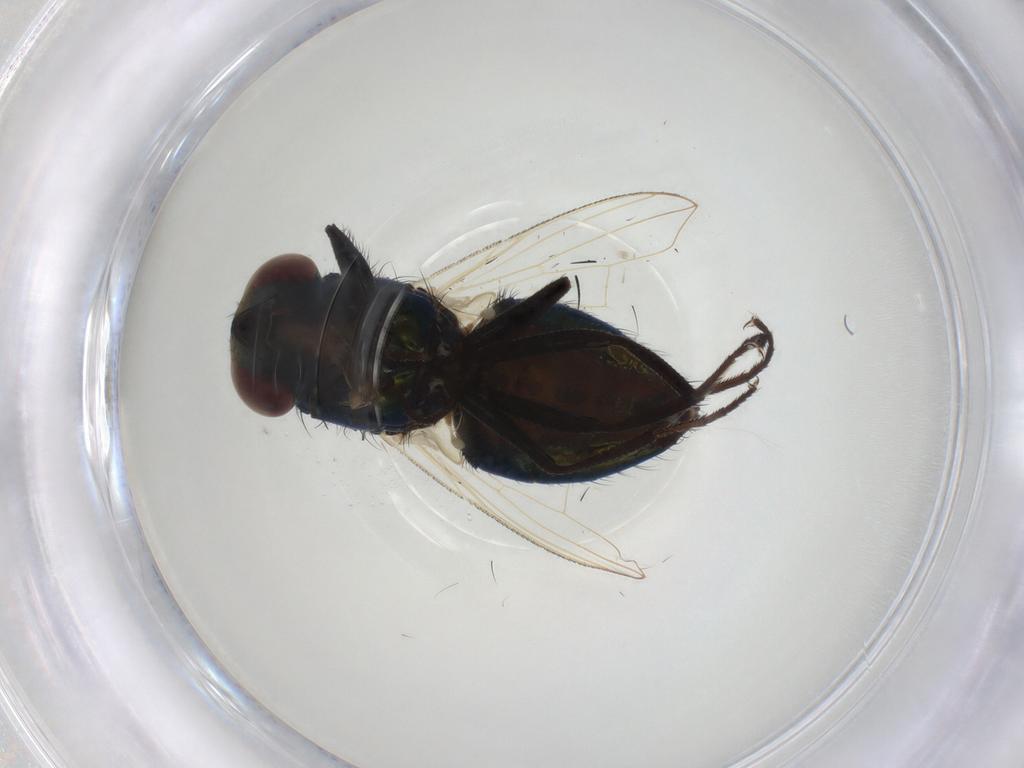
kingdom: Animalia
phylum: Arthropoda
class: Insecta
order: Diptera
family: Muscidae
